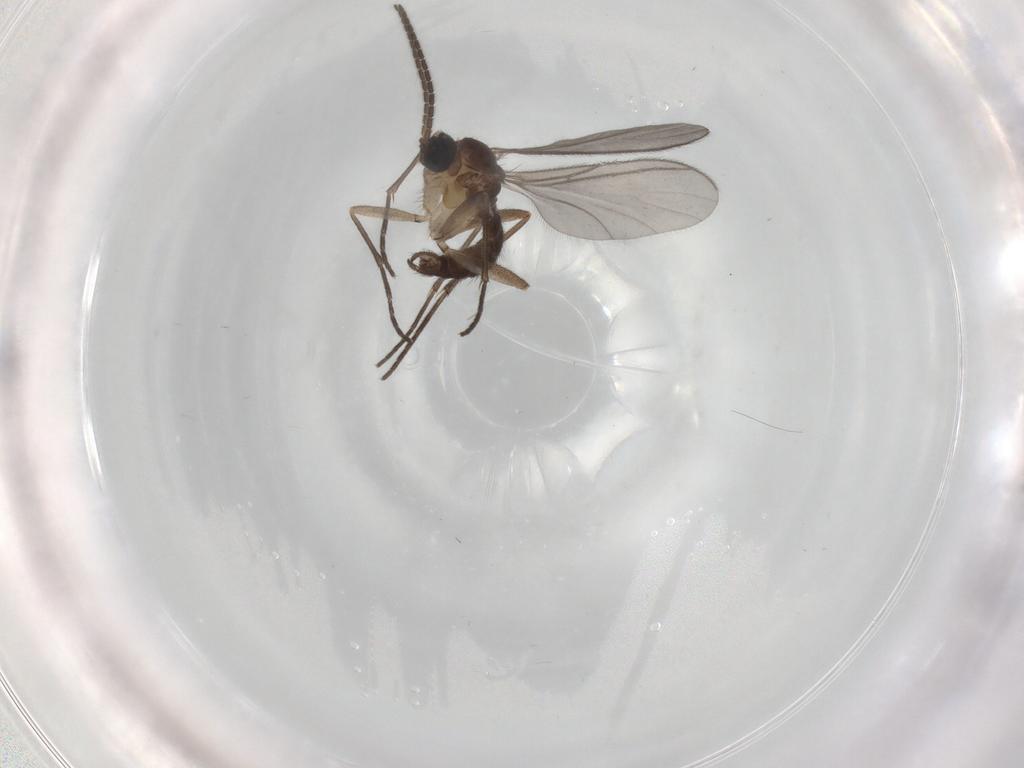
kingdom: Animalia
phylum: Arthropoda
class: Insecta
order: Diptera
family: Sciaridae
